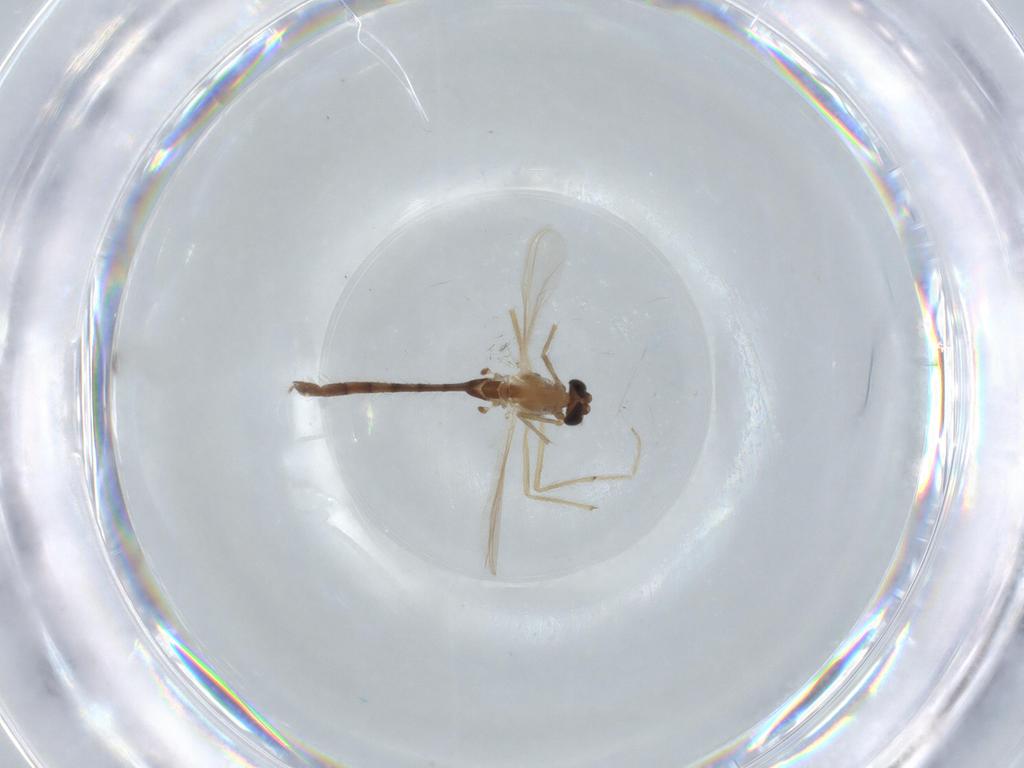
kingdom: Animalia
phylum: Arthropoda
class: Insecta
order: Diptera
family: Chironomidae
